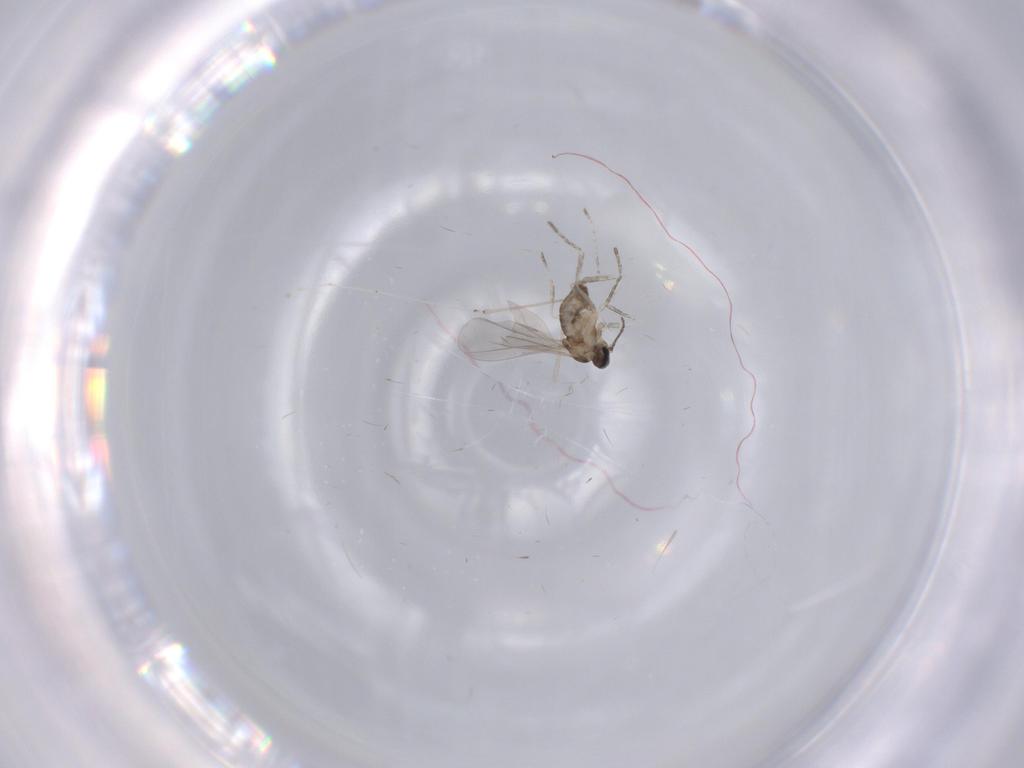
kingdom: Animalia
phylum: Arthropoda
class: Insecta
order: Diptera
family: Cecidomyiidae
